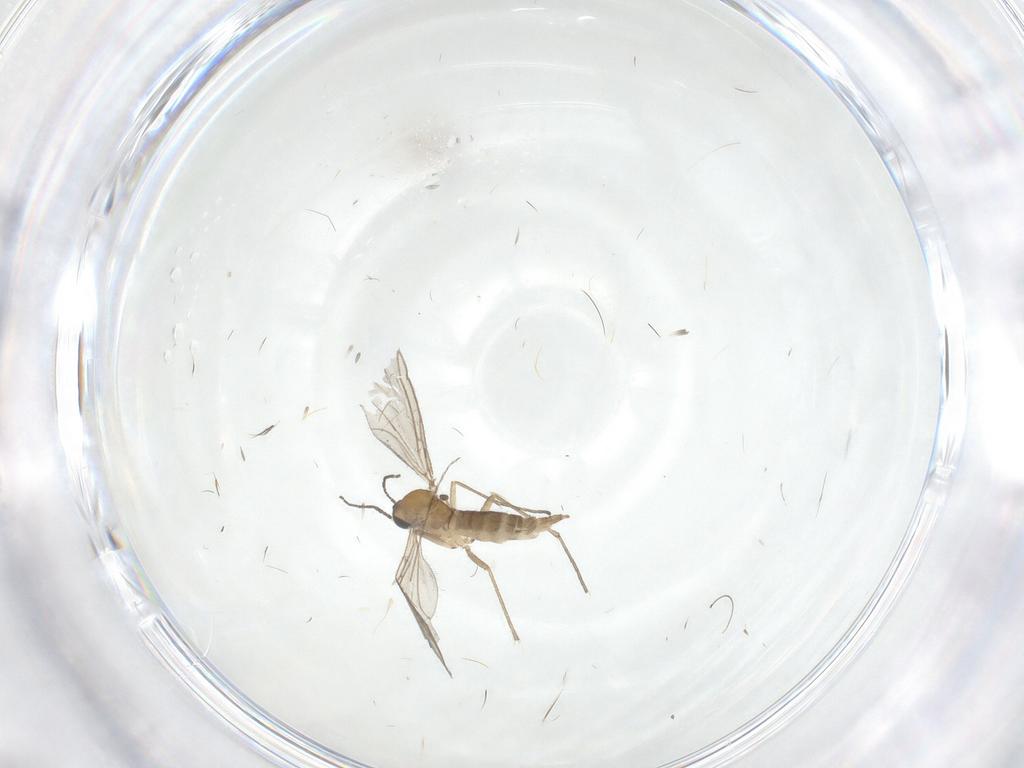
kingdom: Animalia
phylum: Arthropoda
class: Insecta
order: Diptera
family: Sciaridae
